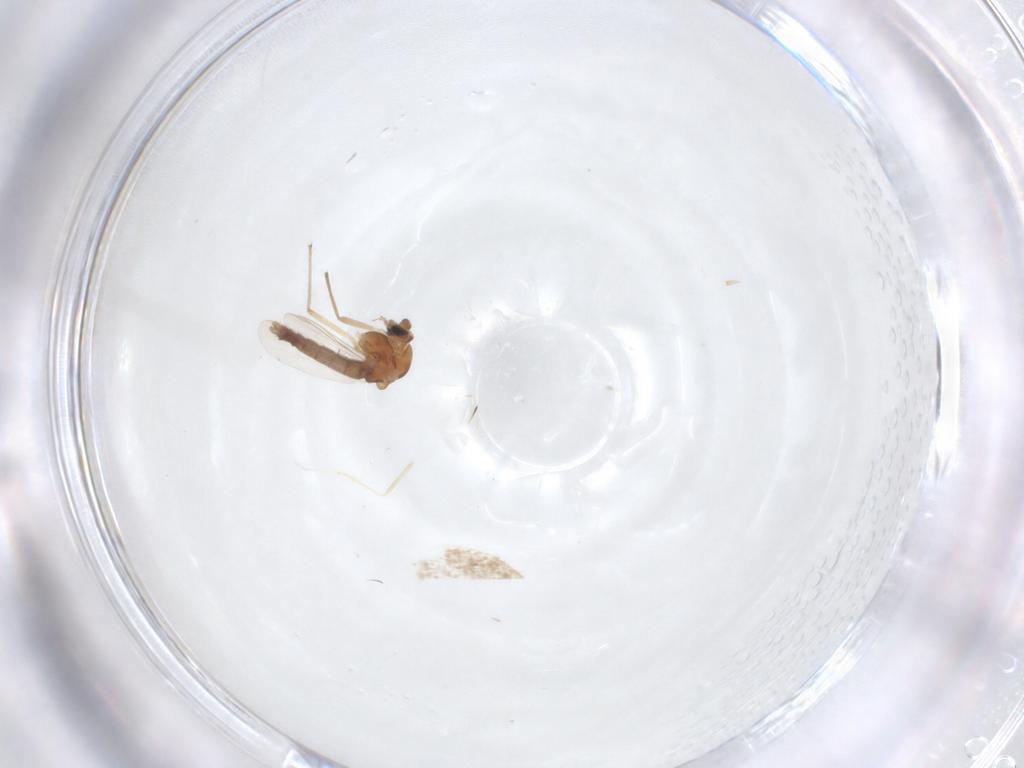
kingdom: Animalia
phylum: Arthropoda
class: Insecta
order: Diptera
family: Chironomidae
